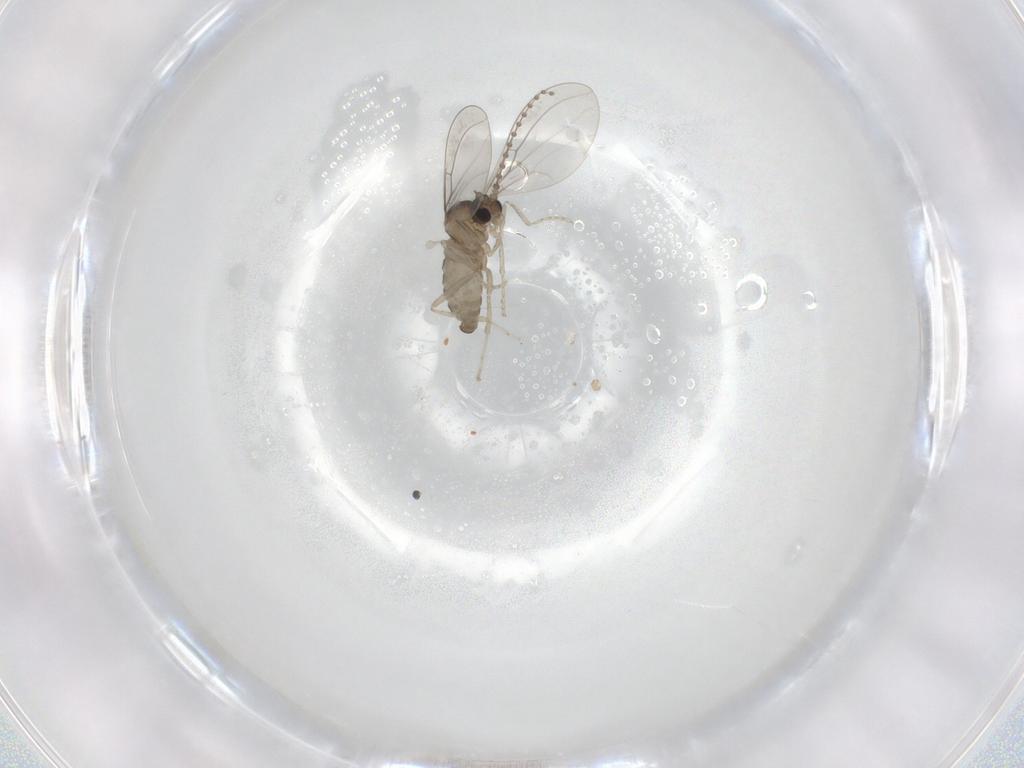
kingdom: Animalia
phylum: Arthropoda
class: Insecta
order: Diptera
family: Cecidomyiidae
